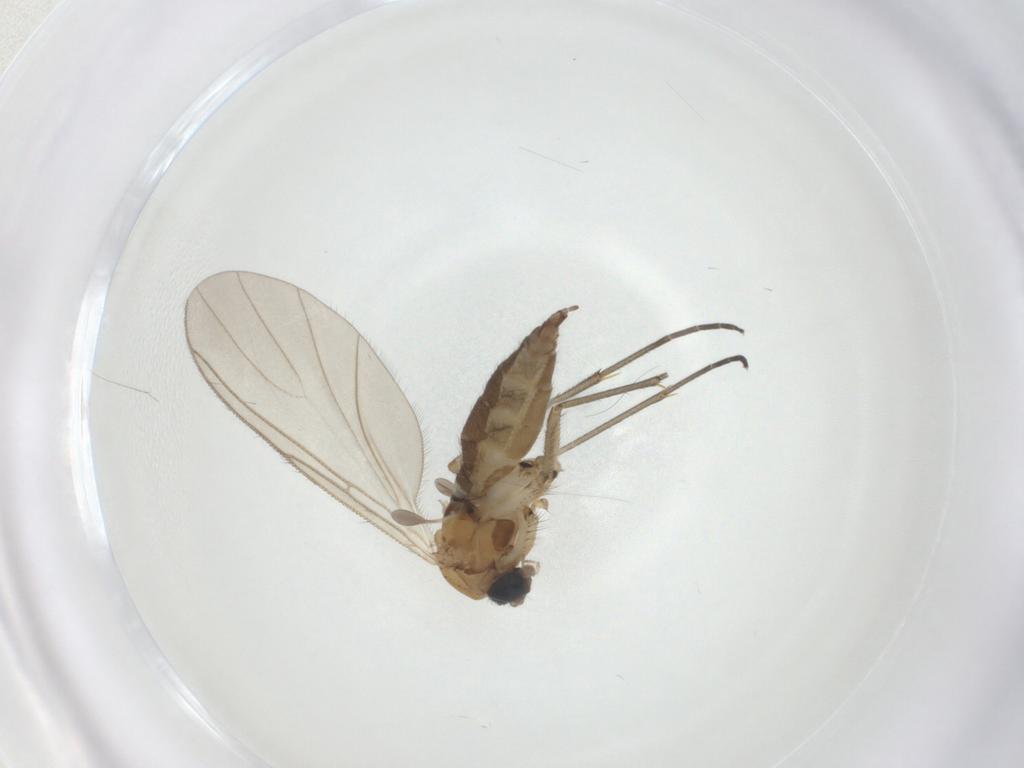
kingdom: Animalia
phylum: Arthropoda
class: Insecta
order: Diptera
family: Sciaridae
